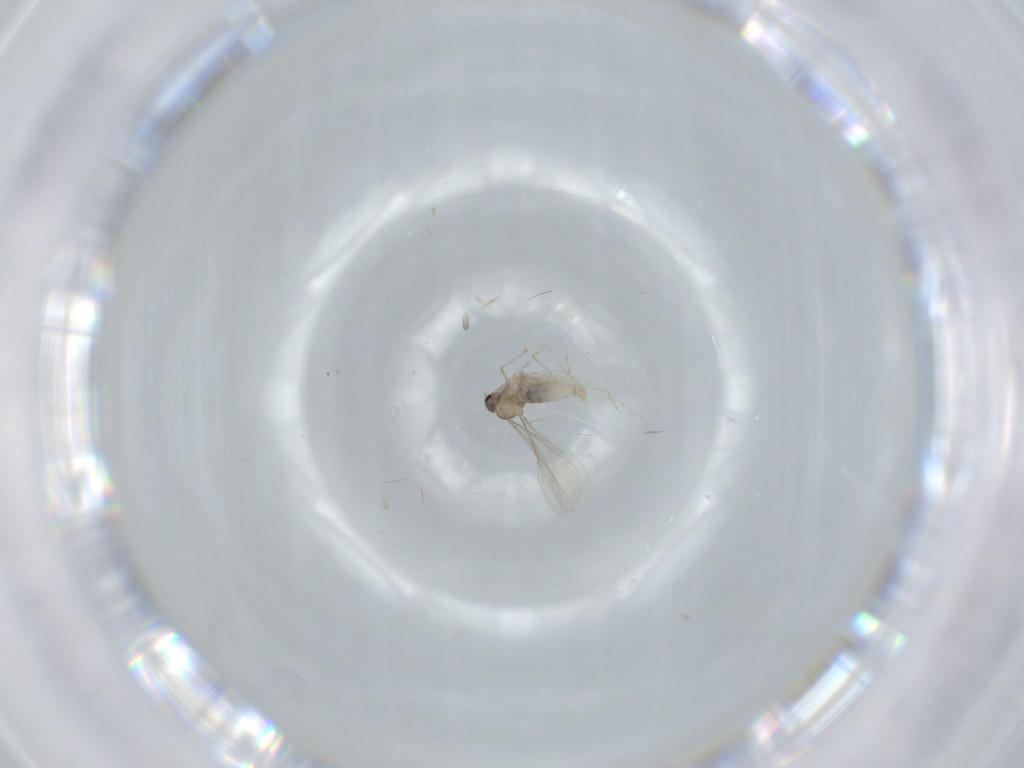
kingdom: Animalia
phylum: Arthropoda
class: Insecta
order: Diptera
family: Cecidomyiidae
